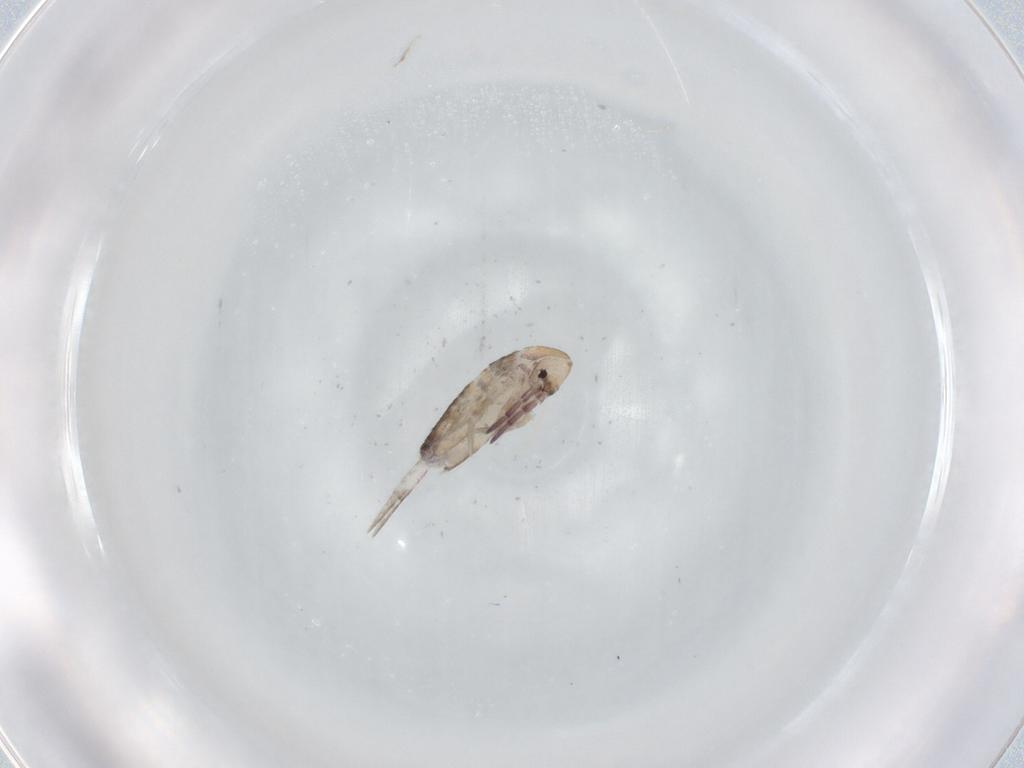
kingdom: Animalia
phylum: Arthropoda
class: Collembola
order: Entomobryomorpha
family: Entomobryidae
